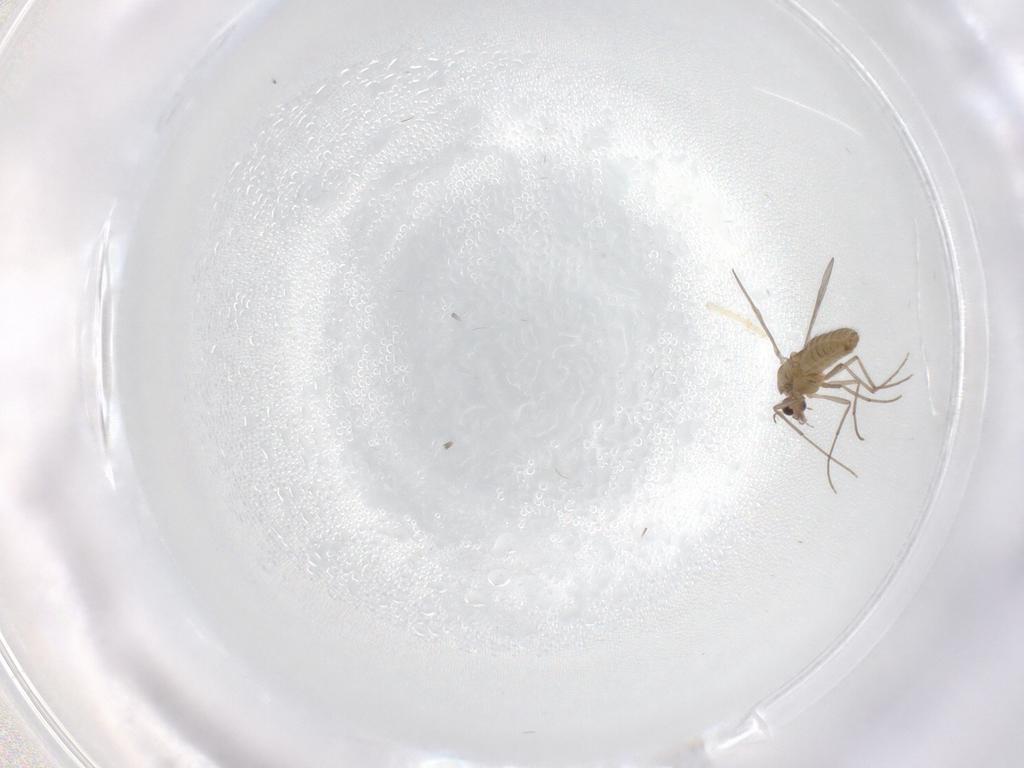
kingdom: Animalia
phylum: Arthropoda
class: Insecta
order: Diptera
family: Chironomidae
